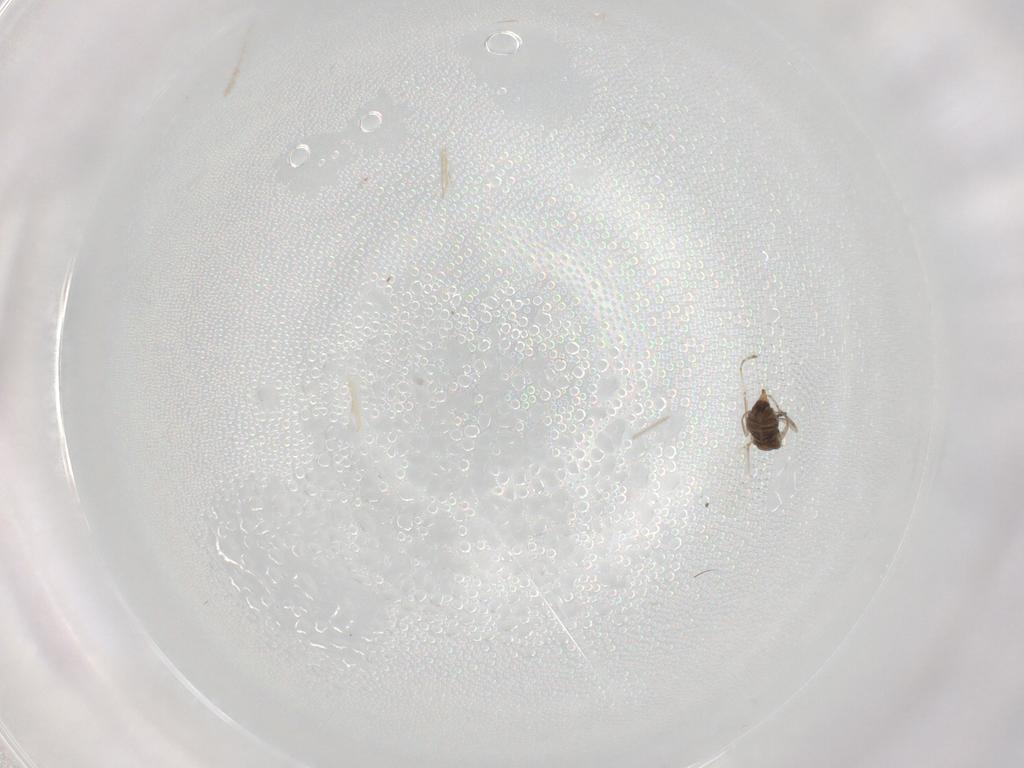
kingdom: Animalia
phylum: Arthropoda
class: Insecta
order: Diptera
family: Cecidomyiidae
